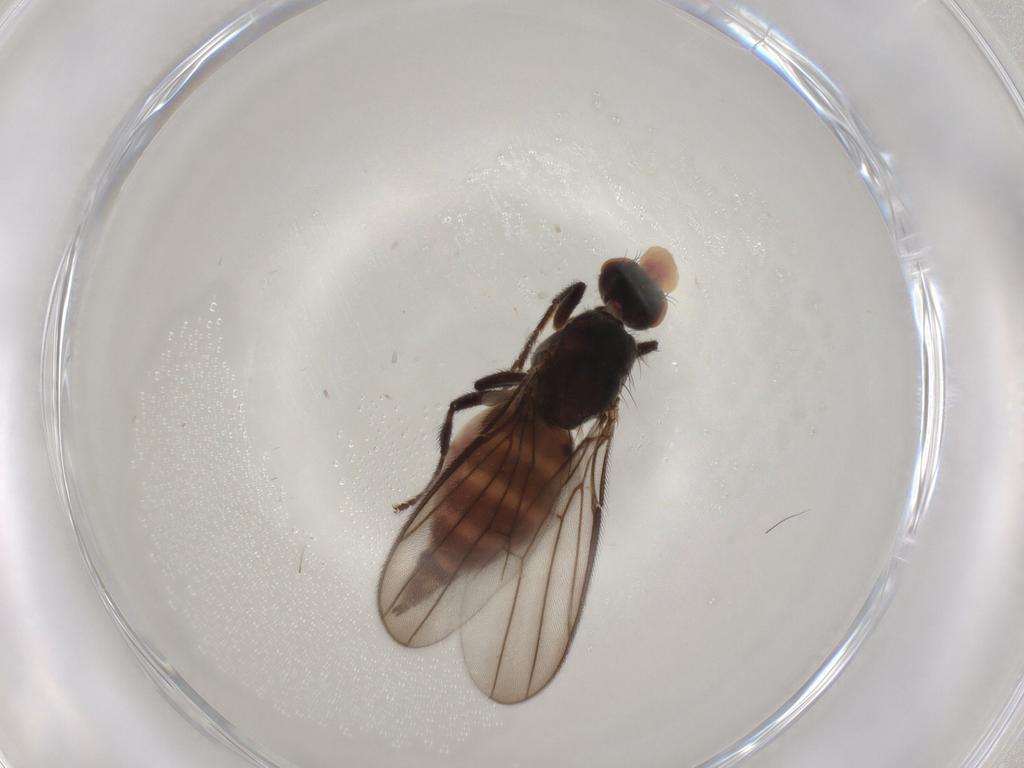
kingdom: Animalia
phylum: Arthropoda
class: Insecta
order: Diptera
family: Chloropidae
